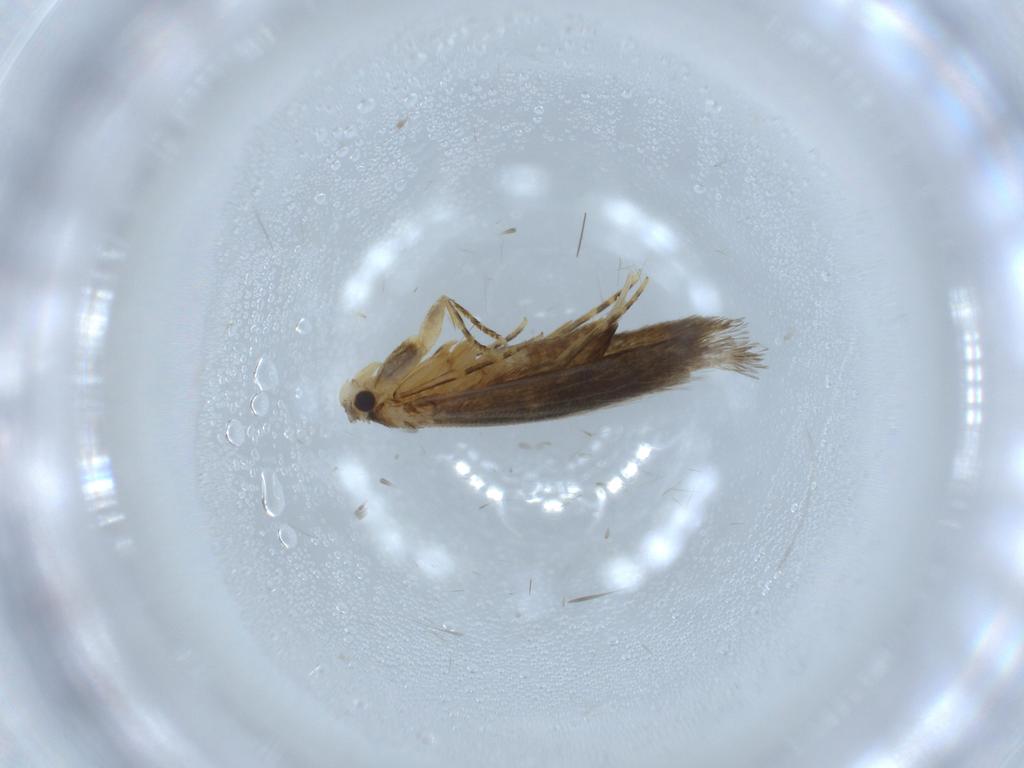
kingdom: Animalia
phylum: Arthropoda
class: Insecta
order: Lepidoptera
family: Tineidae
